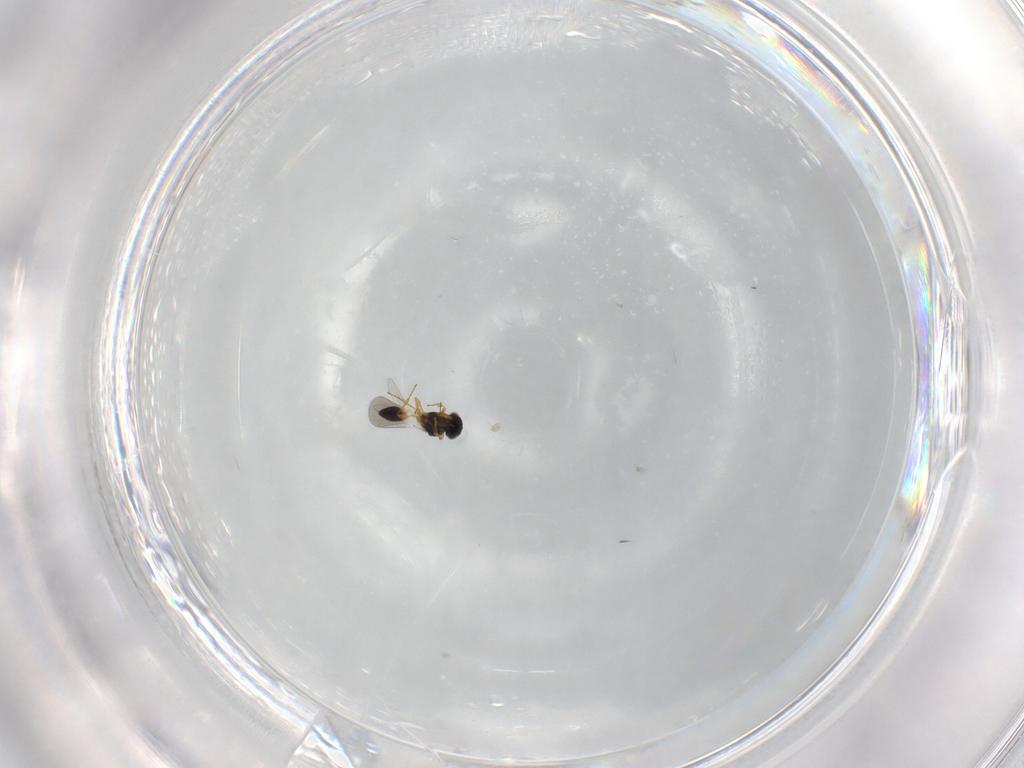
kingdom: Animalia
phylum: Arthropoda
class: Insecta
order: Hymenoptera
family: Platygastridae
